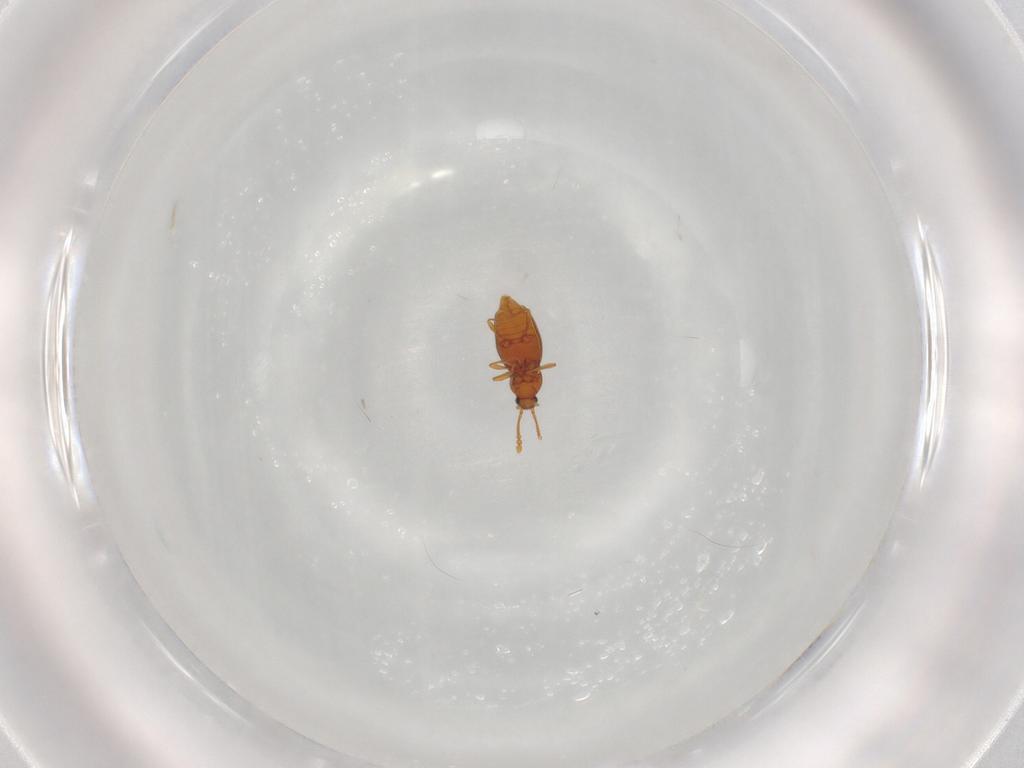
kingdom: Animalia
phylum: Arthropoda
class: Insecta
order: Coleoptera
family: Staphylinidae
